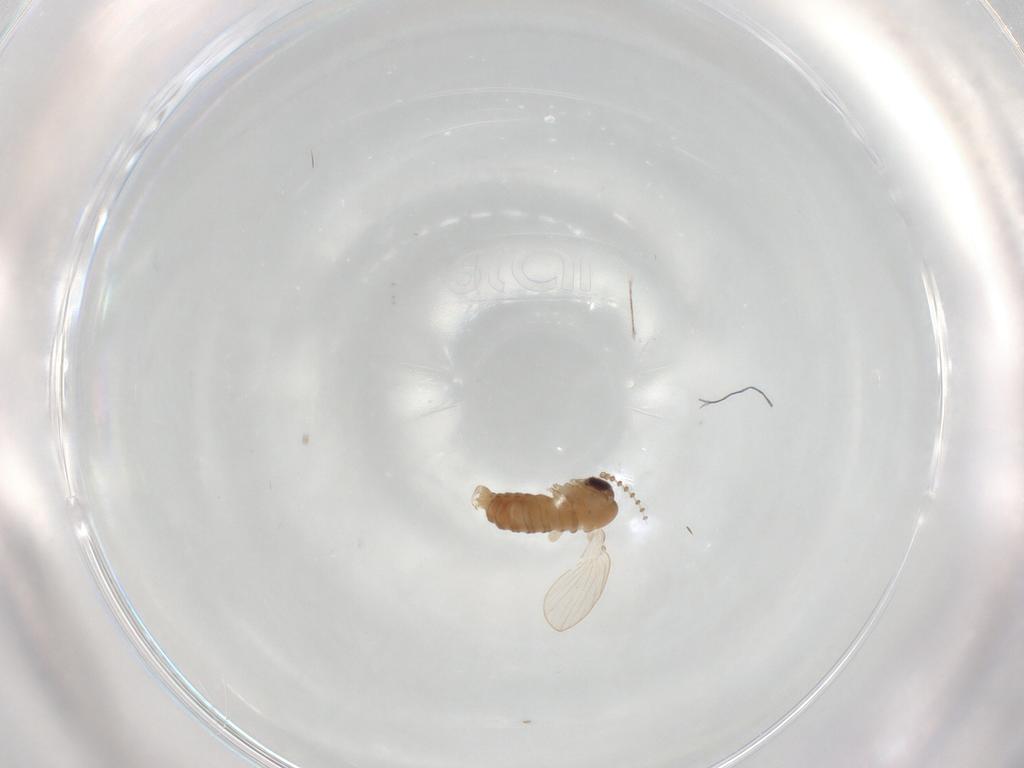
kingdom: Animalia
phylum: Arthropoda
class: Insecta
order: Diptera
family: Psychodidae
